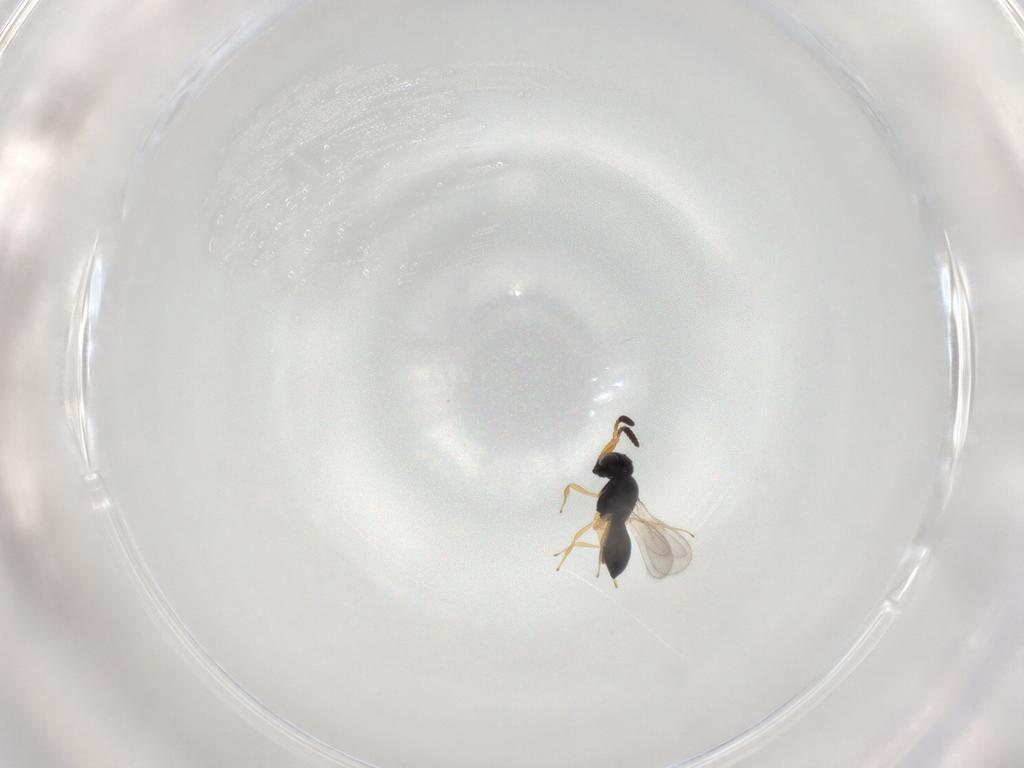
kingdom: Animalia
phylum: Arthropoda
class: Insecta
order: Hymenoptera
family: Scelionidae
